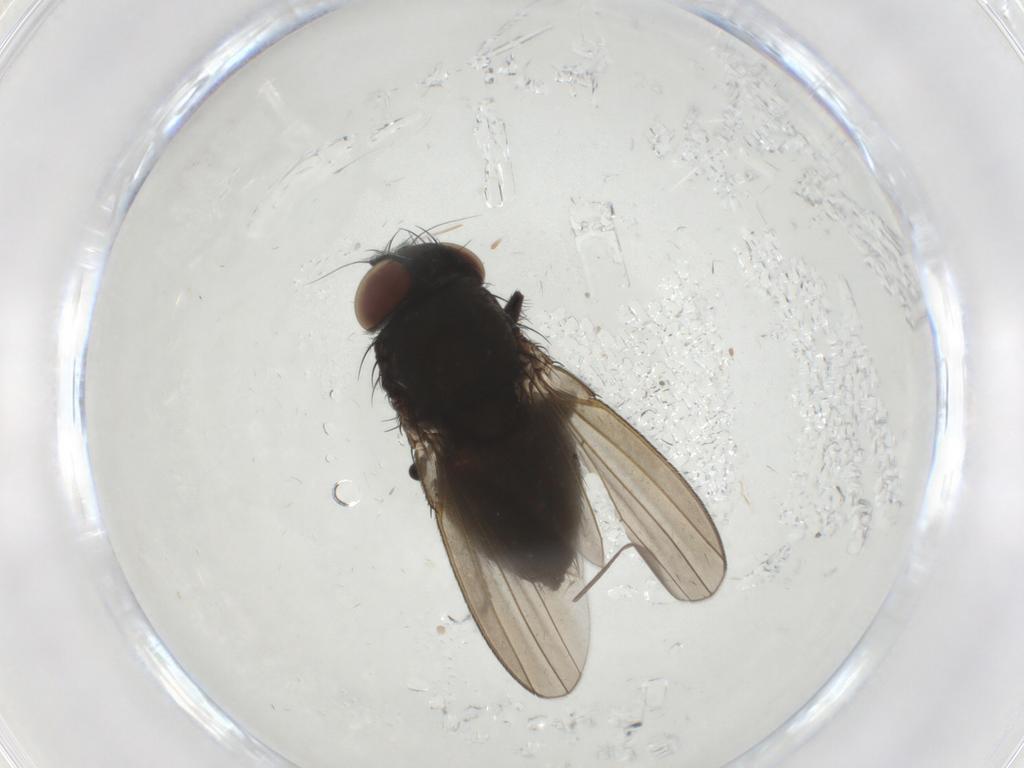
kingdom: Animalia
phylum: Arthropoda
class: Insecta
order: Diptera
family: Milichiidae
